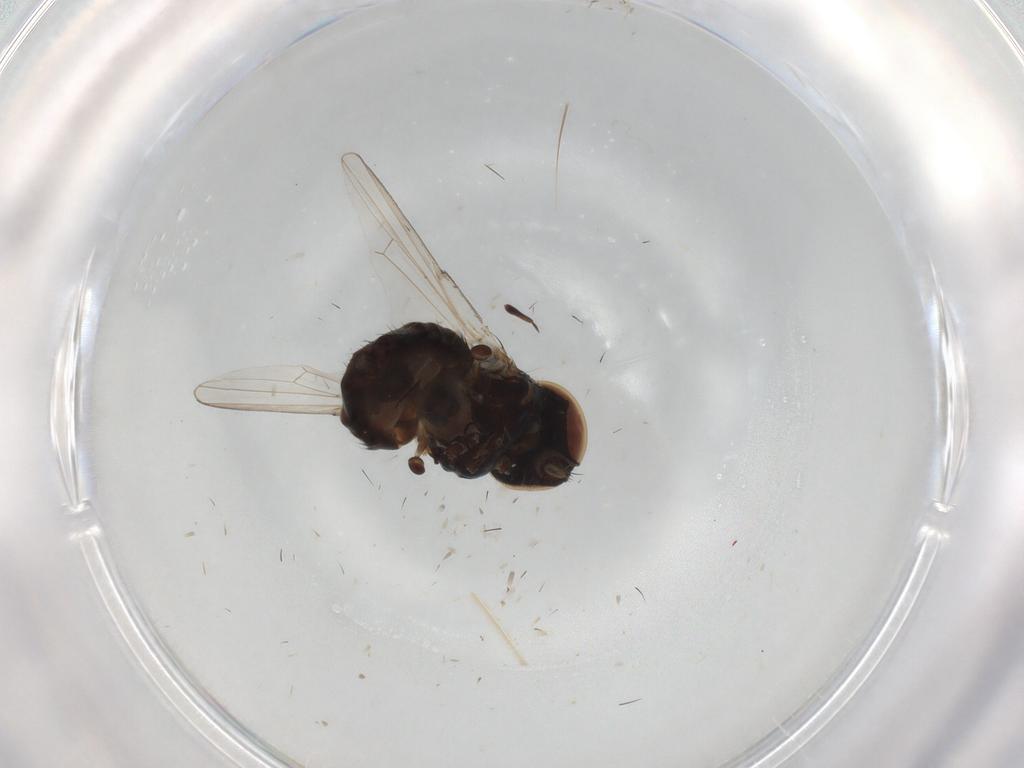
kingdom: Animalia
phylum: Arthropoda
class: Insecta
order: Diptera
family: Milichiidae
